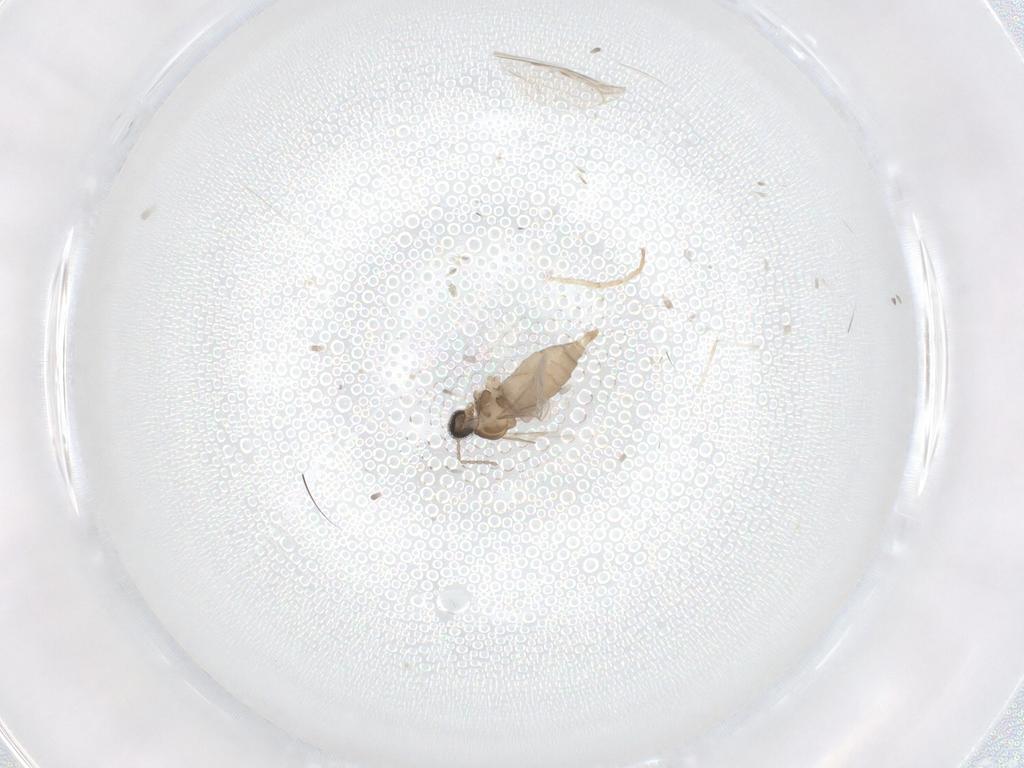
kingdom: Animalia
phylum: Arthropoda
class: Insecta
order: Diptera
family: Cecidomyiidae
